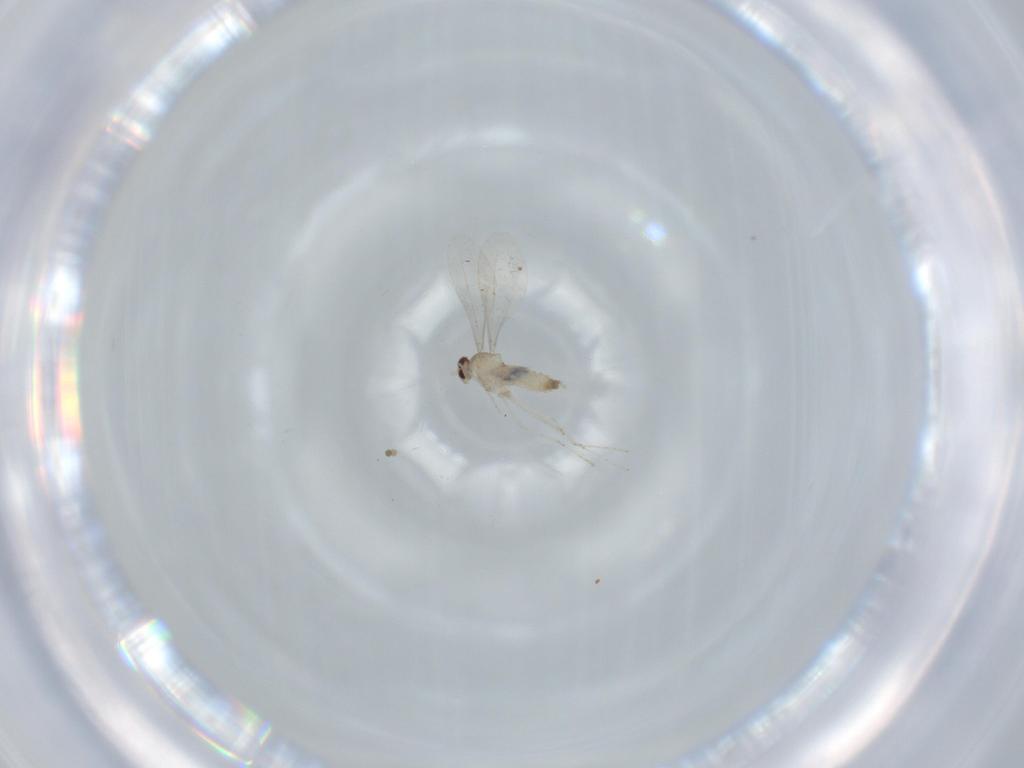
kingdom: Animalia
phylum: Arthropoda
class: Insecta
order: Diptera
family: Cecidomyiidae
